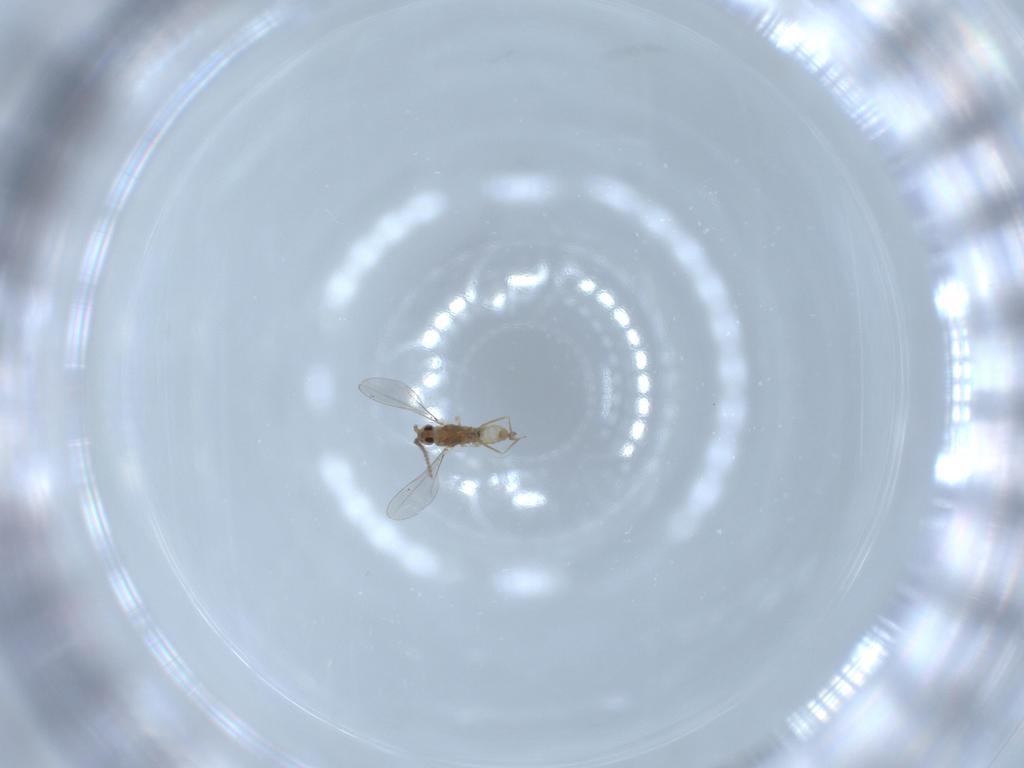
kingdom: Animalia
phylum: Arthropoda
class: Insecta
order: Diptera
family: Cecidomyiidae
